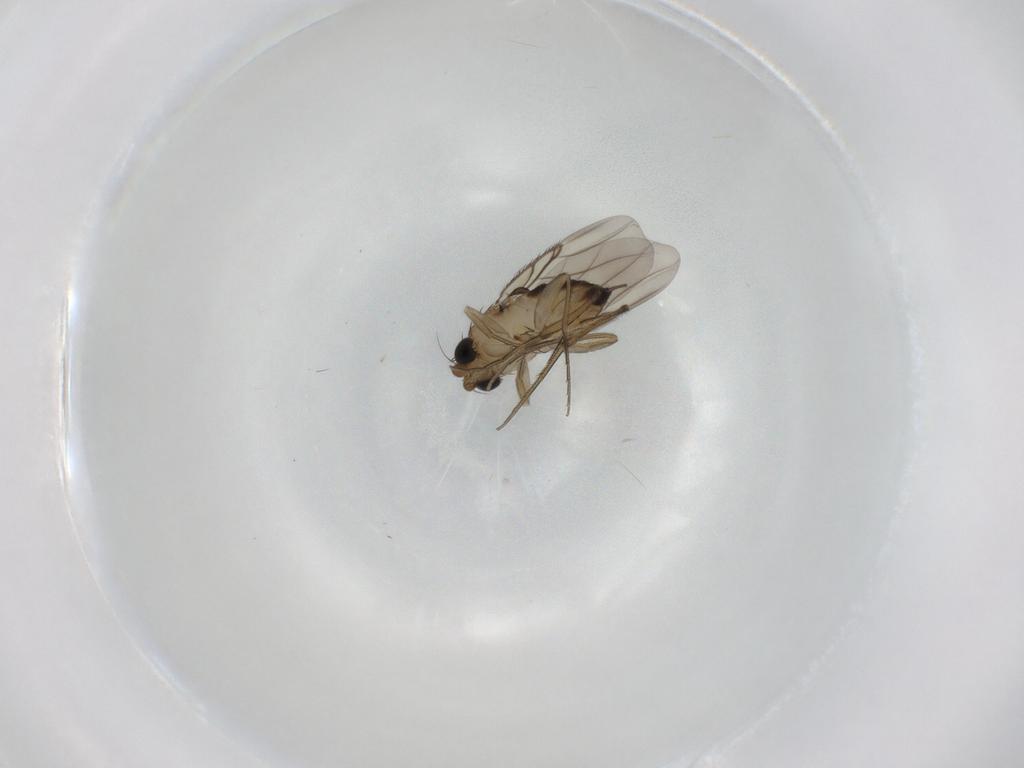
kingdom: Animalia
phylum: Arthropoda
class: Insecta
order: Diptera
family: Phoridae
